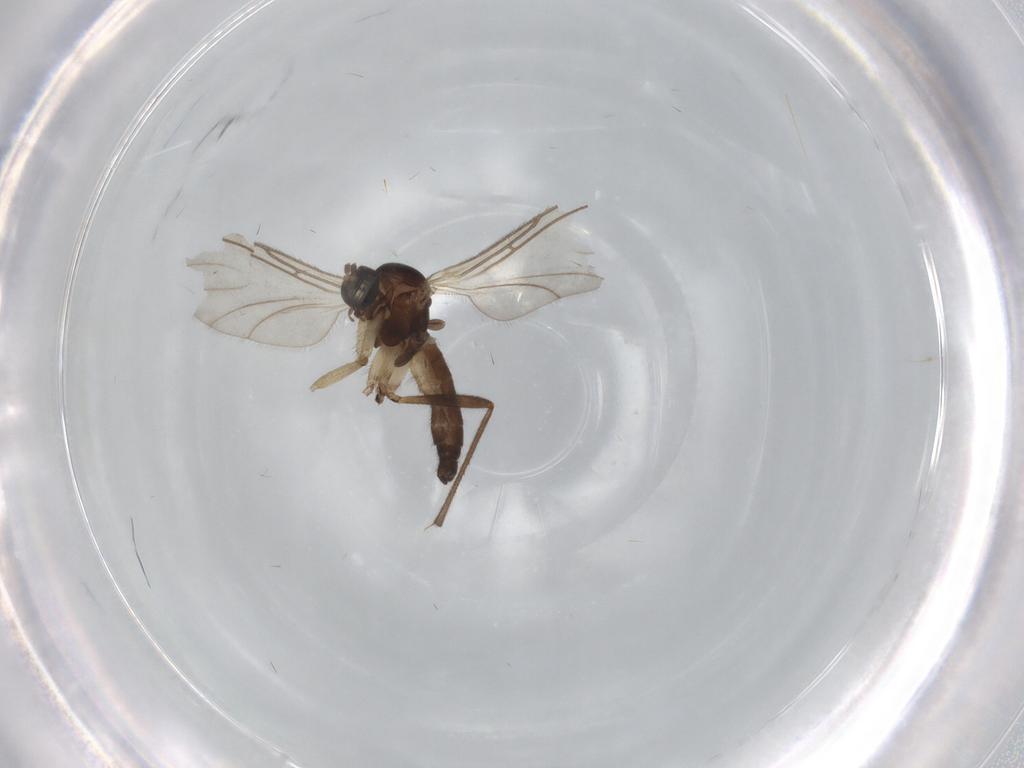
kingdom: Animalia
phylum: Arthropoda
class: Insecta
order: Diptera
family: Sciaridae
